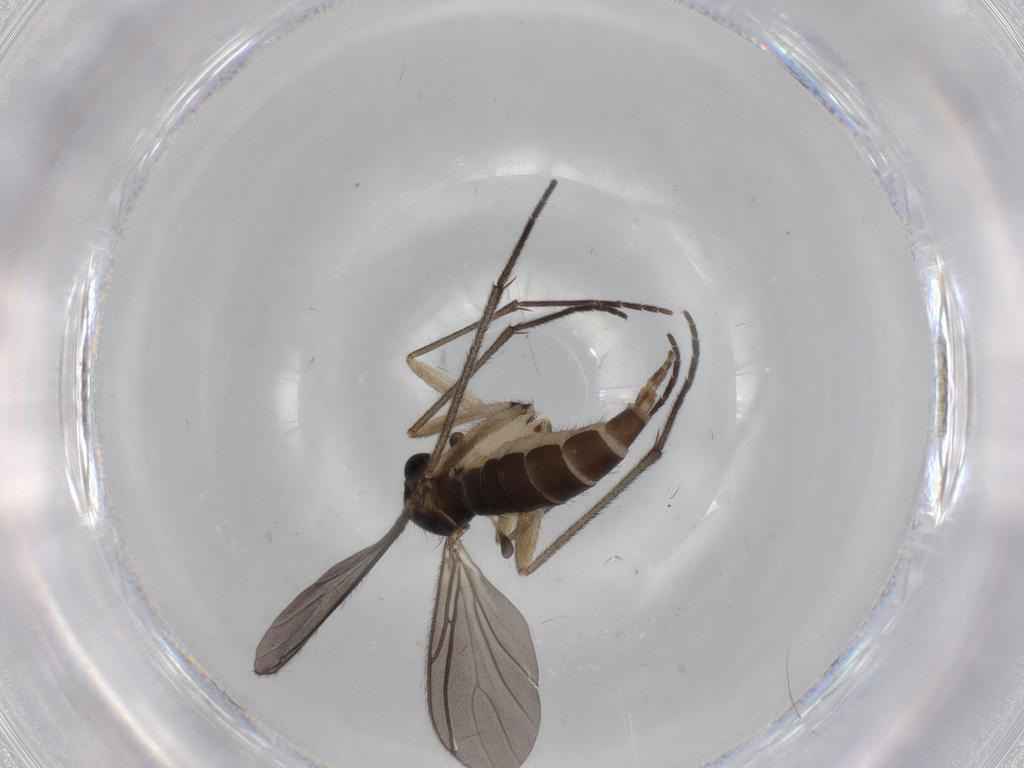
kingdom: Animalia
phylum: Arthropoda
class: Insecta
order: Diptera
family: Sciaridae
